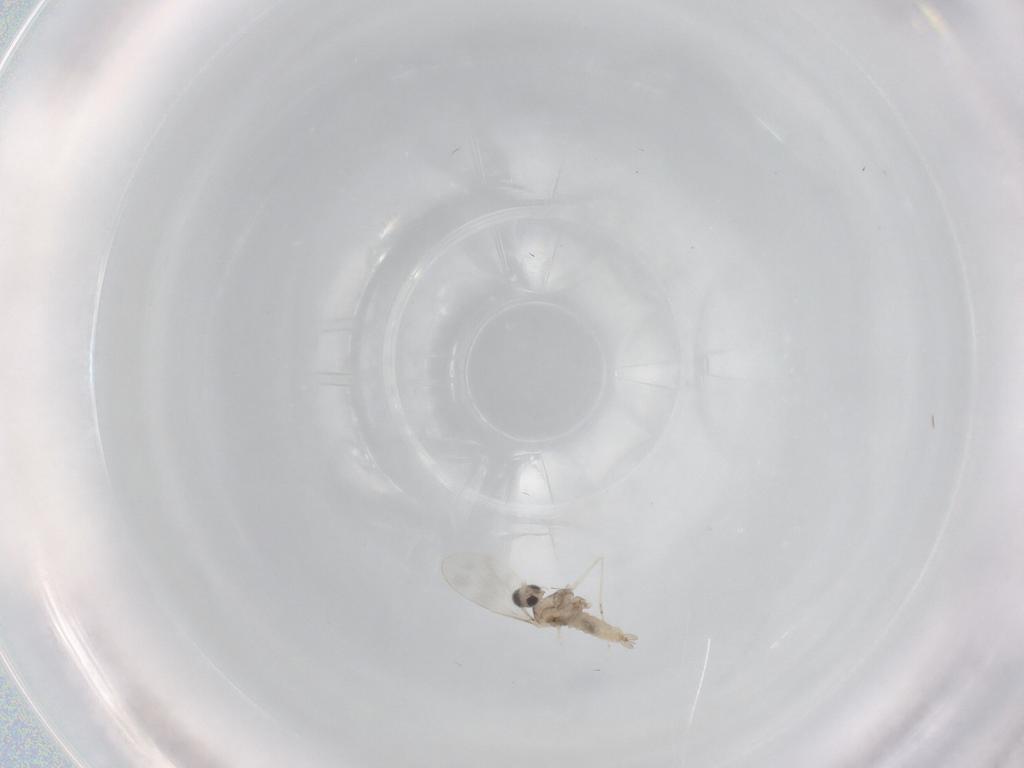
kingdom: Animalia
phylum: Arthropoda
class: Insecta
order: Diptera
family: Cecidomyiidae
